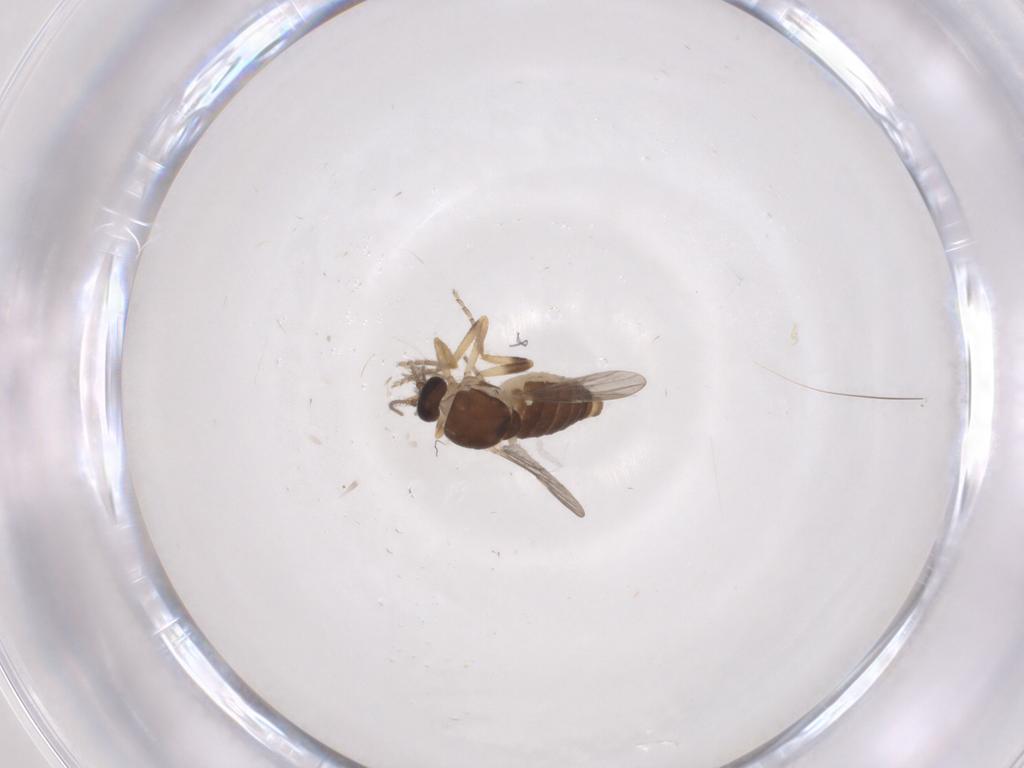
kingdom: Animalia
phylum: Arthropoda
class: Insecta
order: Diptera
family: Ceratopogonidae
